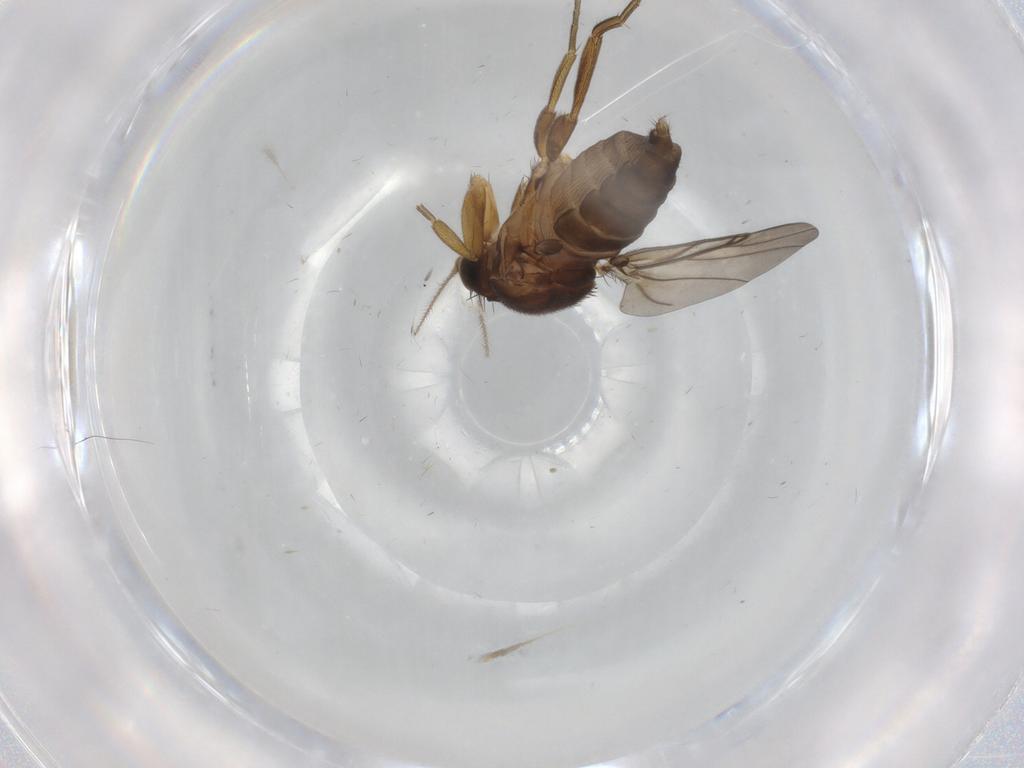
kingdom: Animalia
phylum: Arthropoda
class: Insecta
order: Diptera
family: Phoridae
